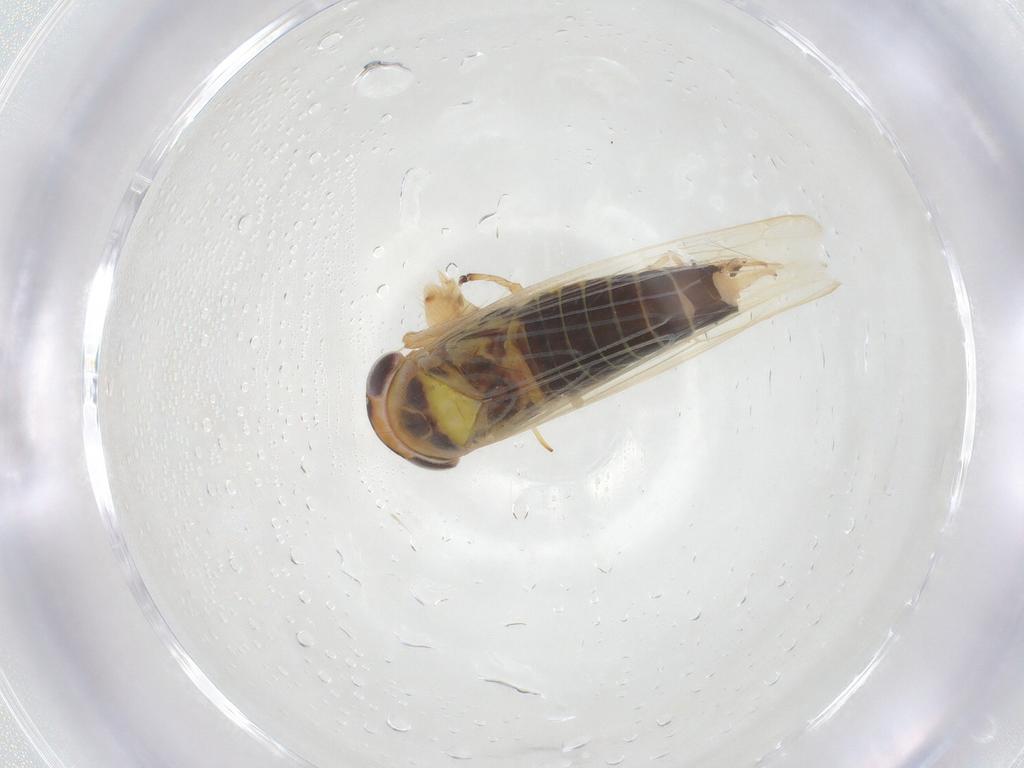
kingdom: Animalia
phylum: Arthropoda
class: Insecta
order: Hemiptera
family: Cicadellidae
